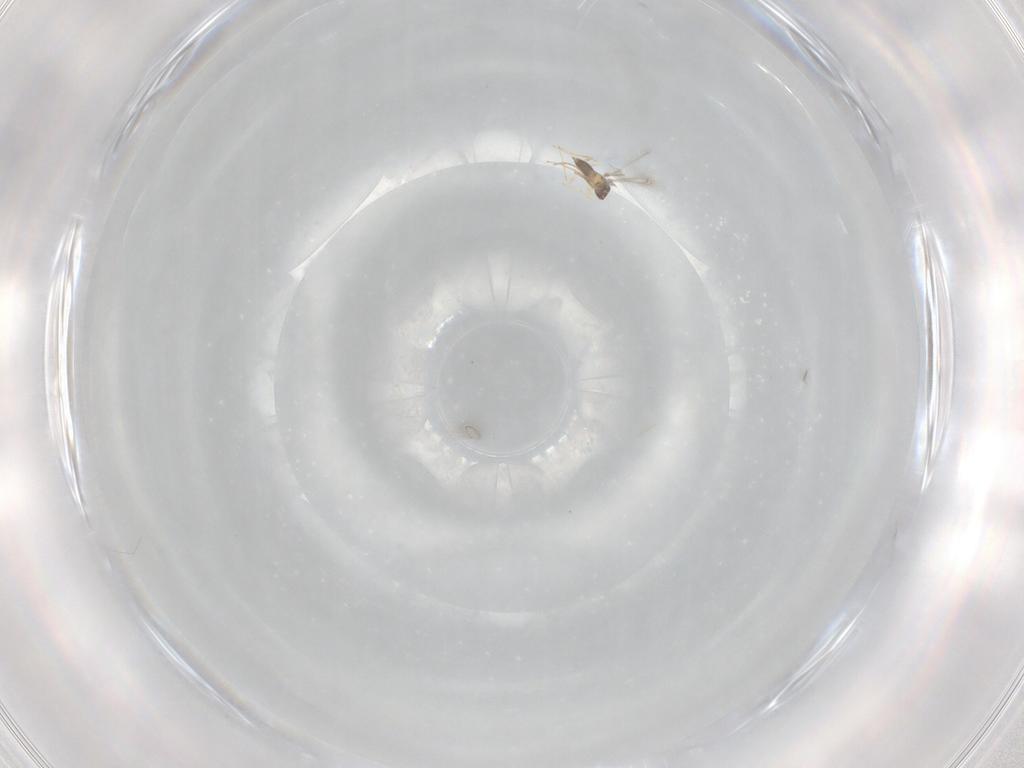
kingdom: Animalia
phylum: Arthropoda
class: Insecta
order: Hymenoptera
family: Mymaridae
